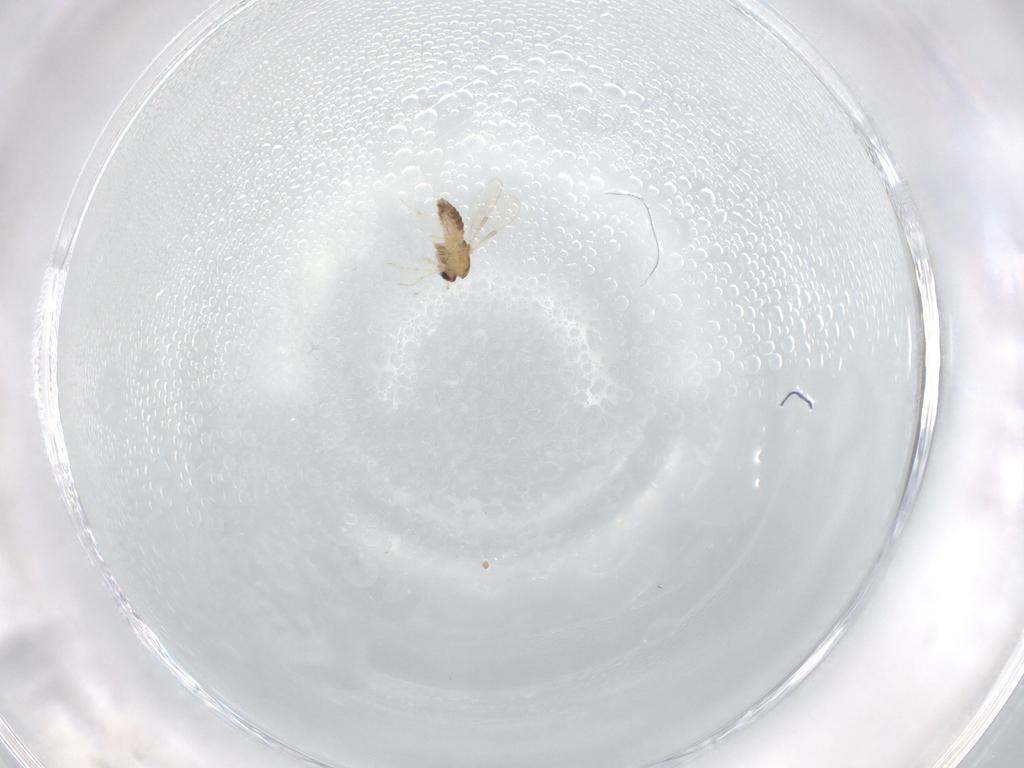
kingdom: Animalia
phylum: Arthropoda
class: Insecta
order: Diptera
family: Chironomidae
